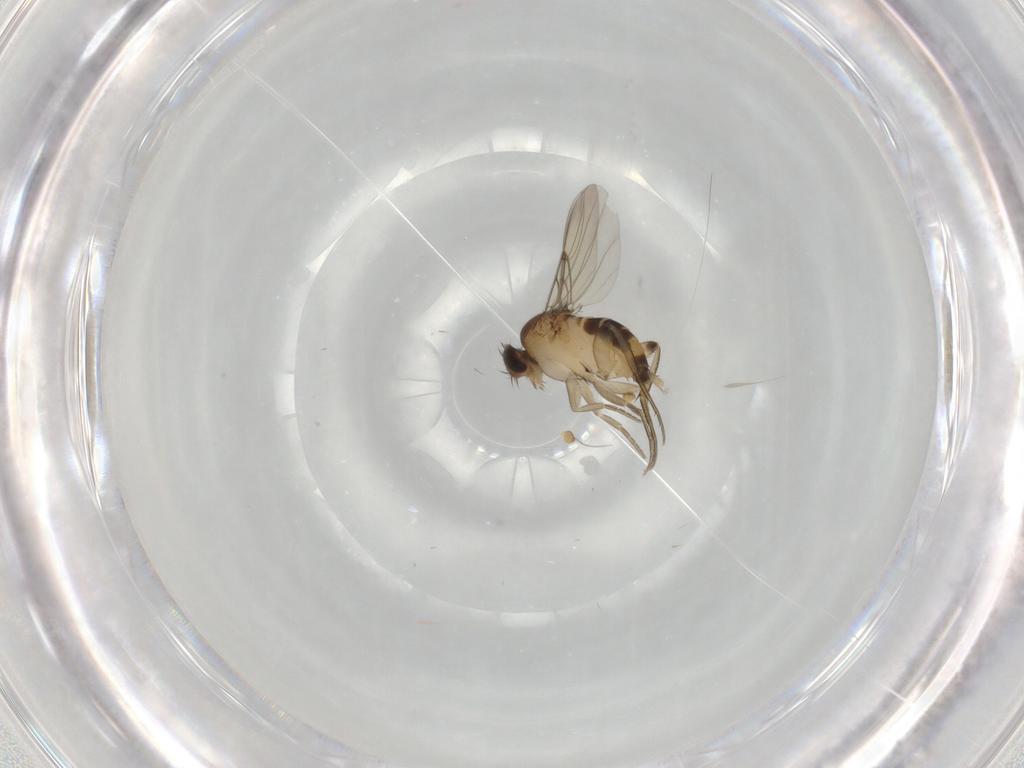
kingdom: Animalia
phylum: Arthropoda
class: Insecta
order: Diptera
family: Phoridae
